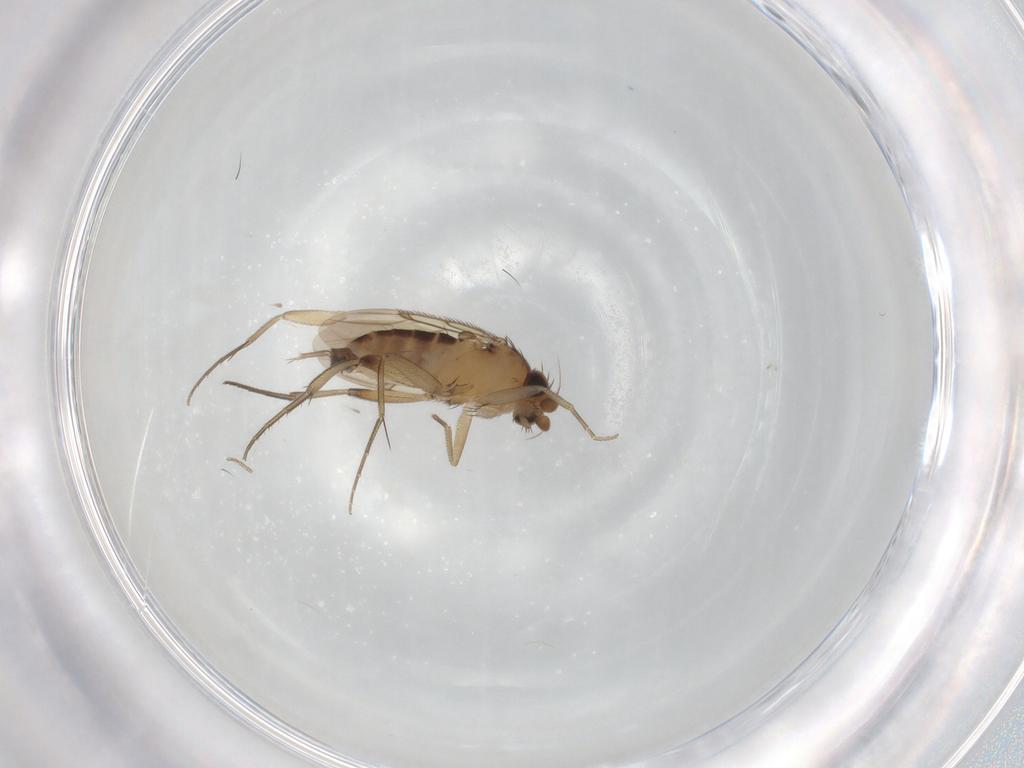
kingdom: Animalia
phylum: Arthropoda
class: Insecta
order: Diptera
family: Phoridae
